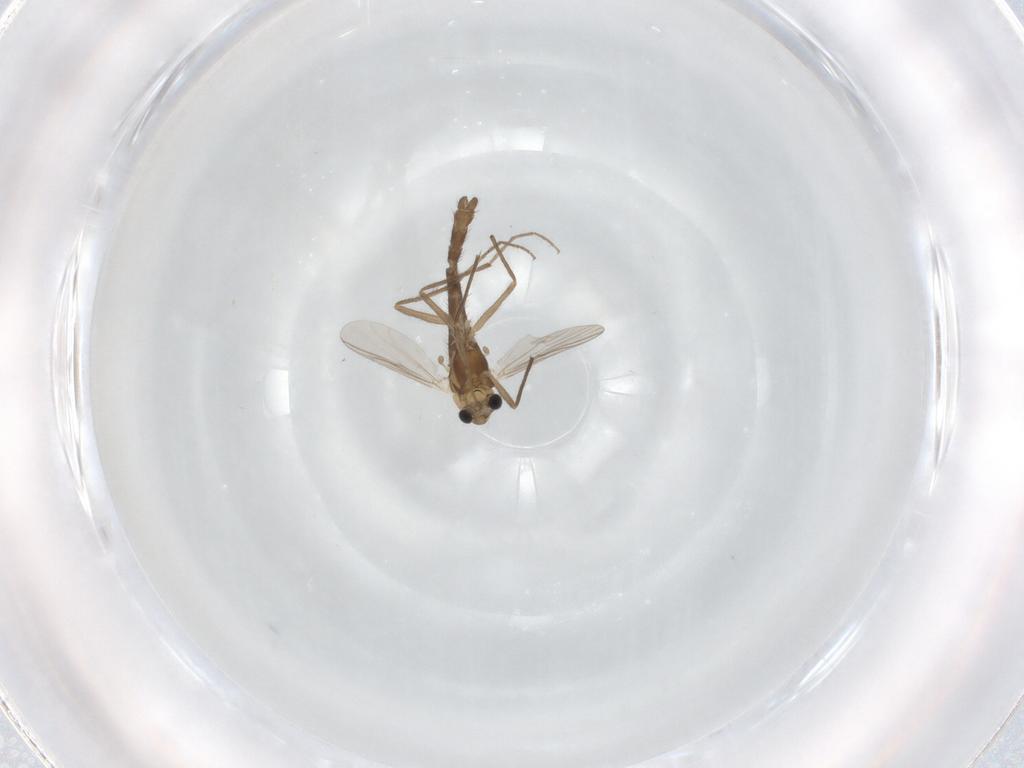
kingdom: Animalia
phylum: Arthropoda
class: Insecta
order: Diptera
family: Chironomidae
